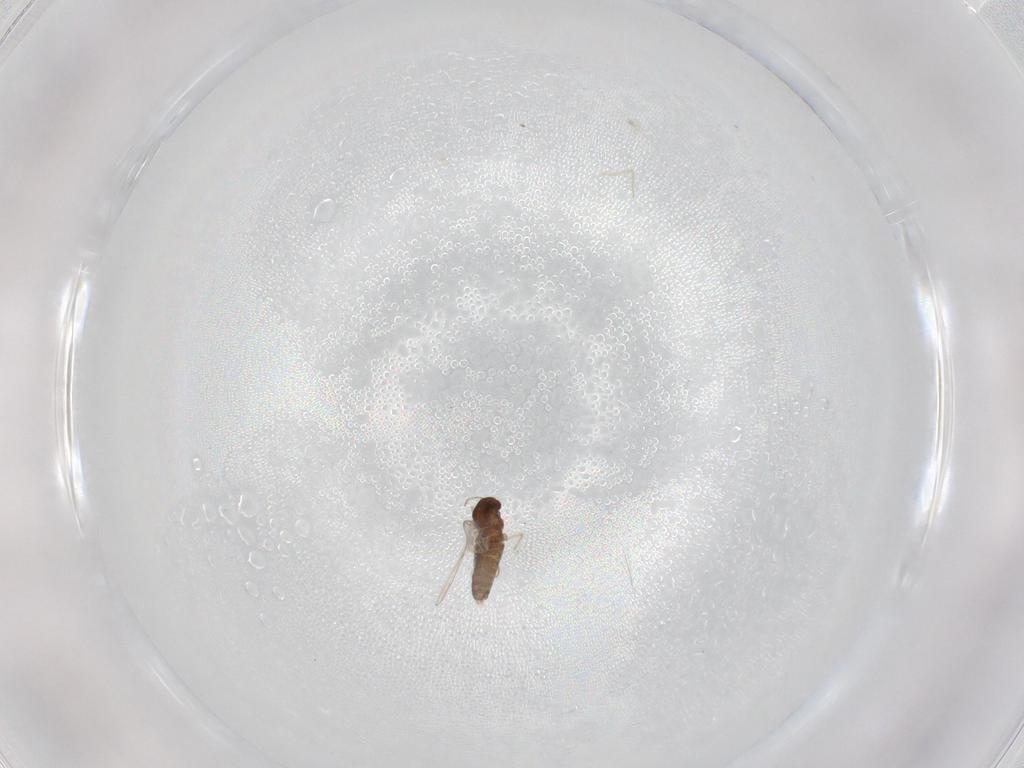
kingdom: Animalia
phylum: Arthropoda
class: Insecta
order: Diptera
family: Chironomidae
